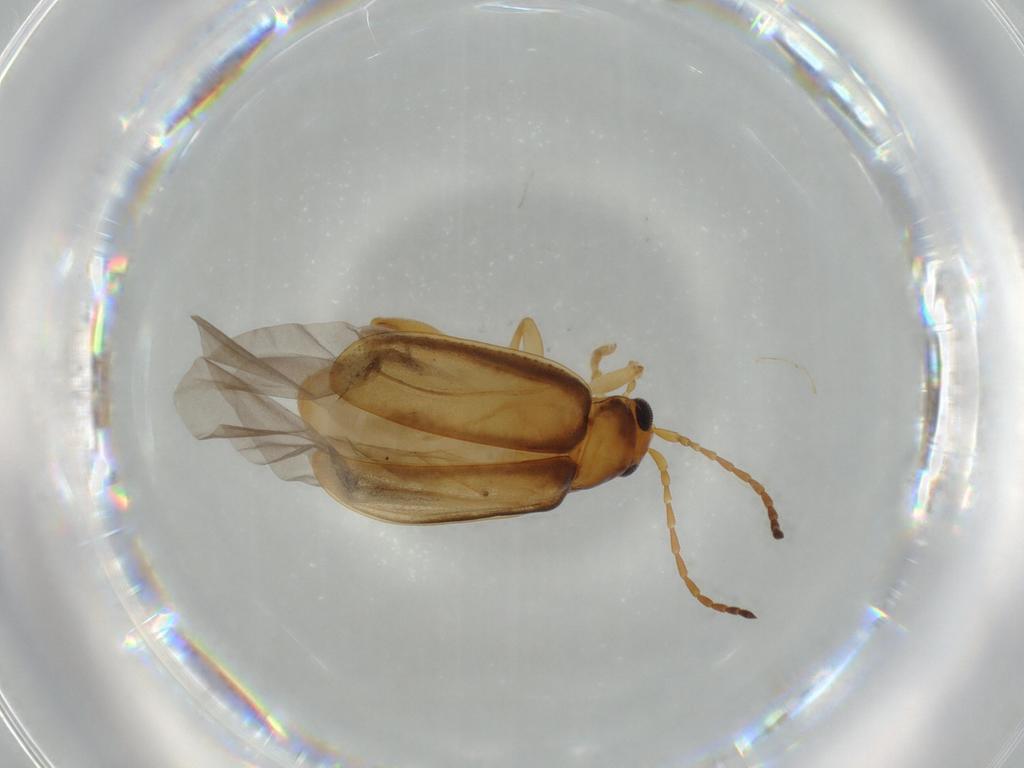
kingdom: Animalia
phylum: Arthropoda
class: Insecta
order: Coleoptera
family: Chrysomelidae
